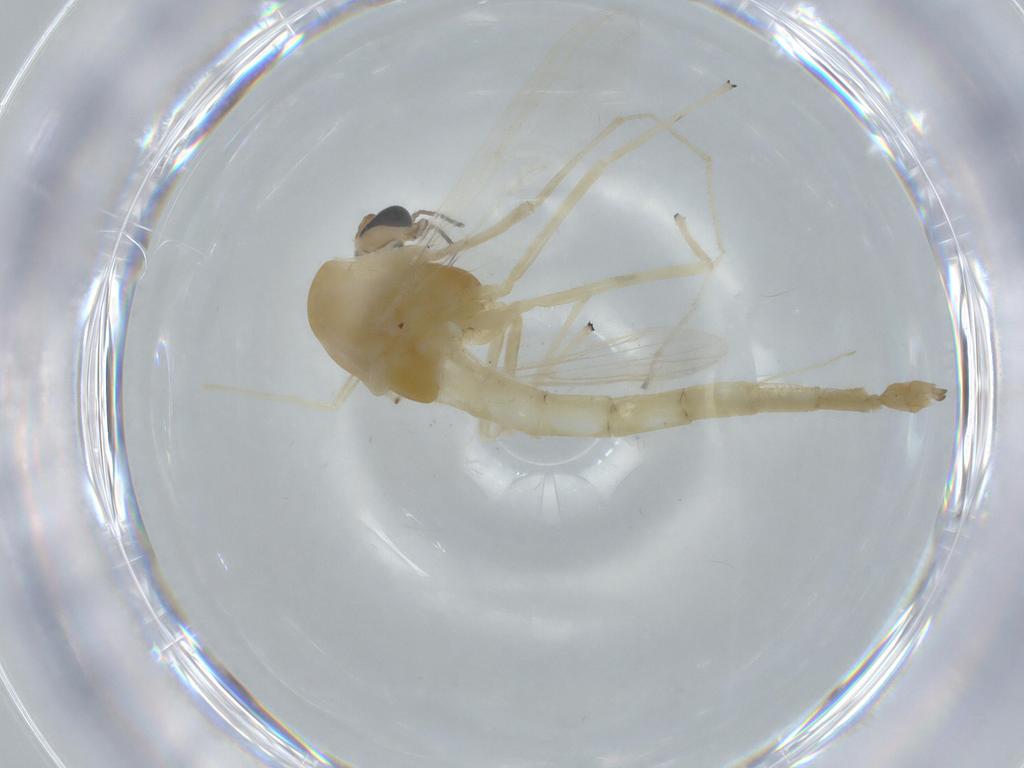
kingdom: Animalia
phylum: Arthropoda
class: Insecta
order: Diptera
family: Chironomidae
